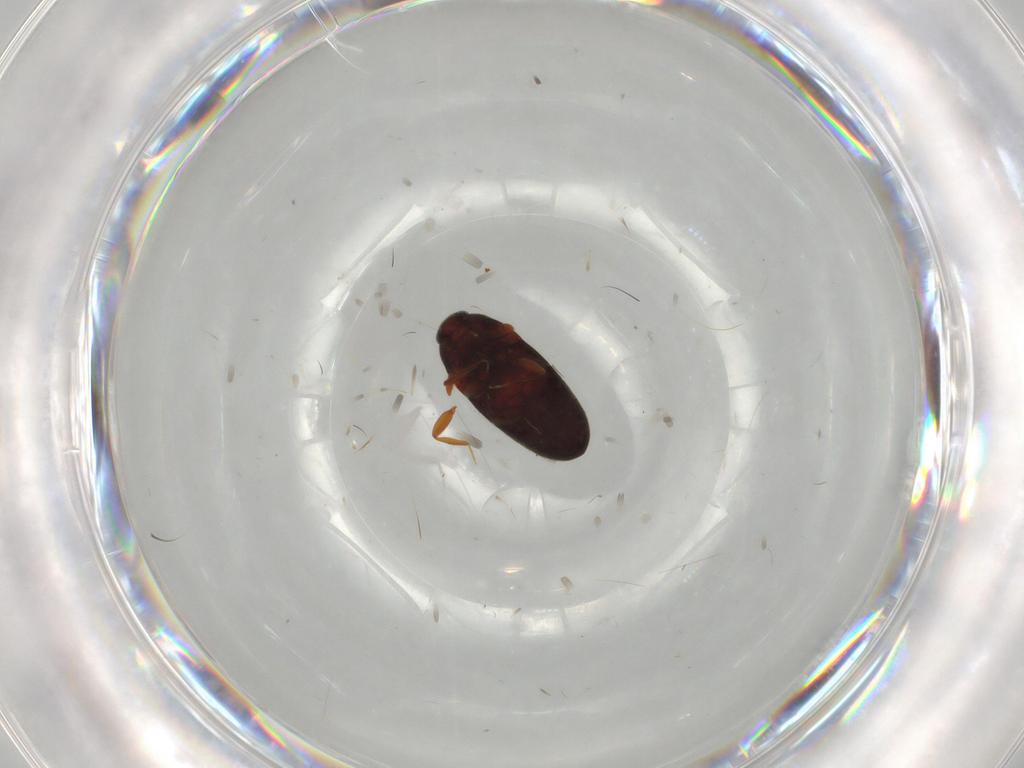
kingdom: Animalia
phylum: Arthropoda
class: Insecta
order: Coleoptera
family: Throscidae
